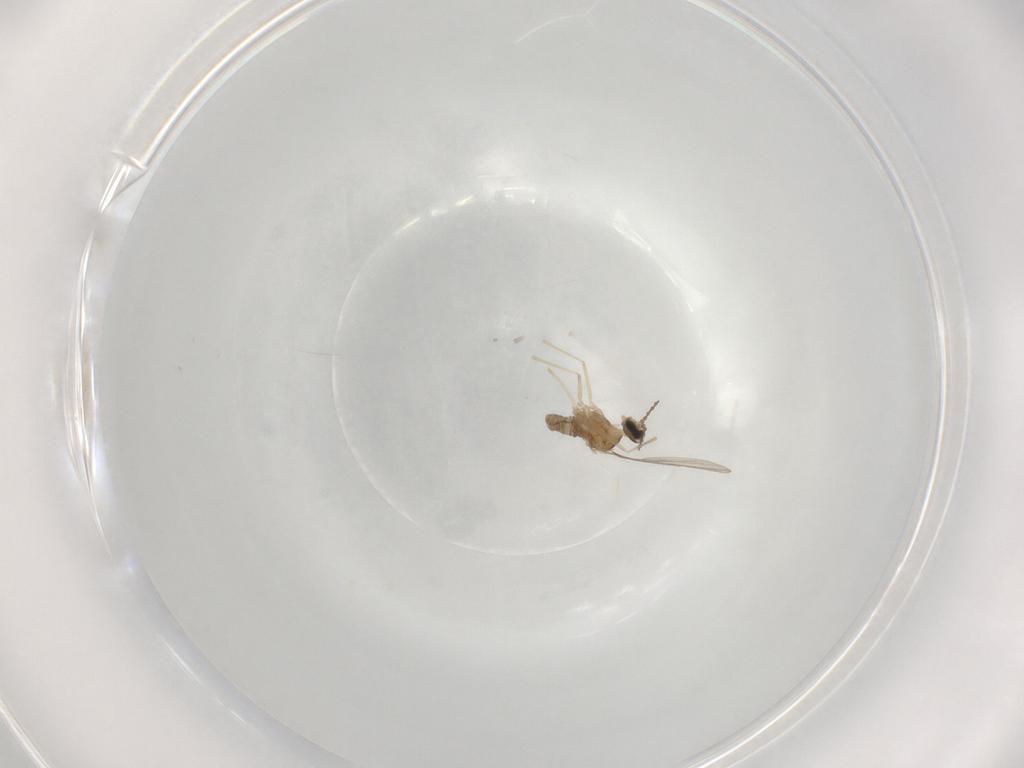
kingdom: Animalia
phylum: Arthropoda
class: Insecta
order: Diptera
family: Cecidomyiidae
